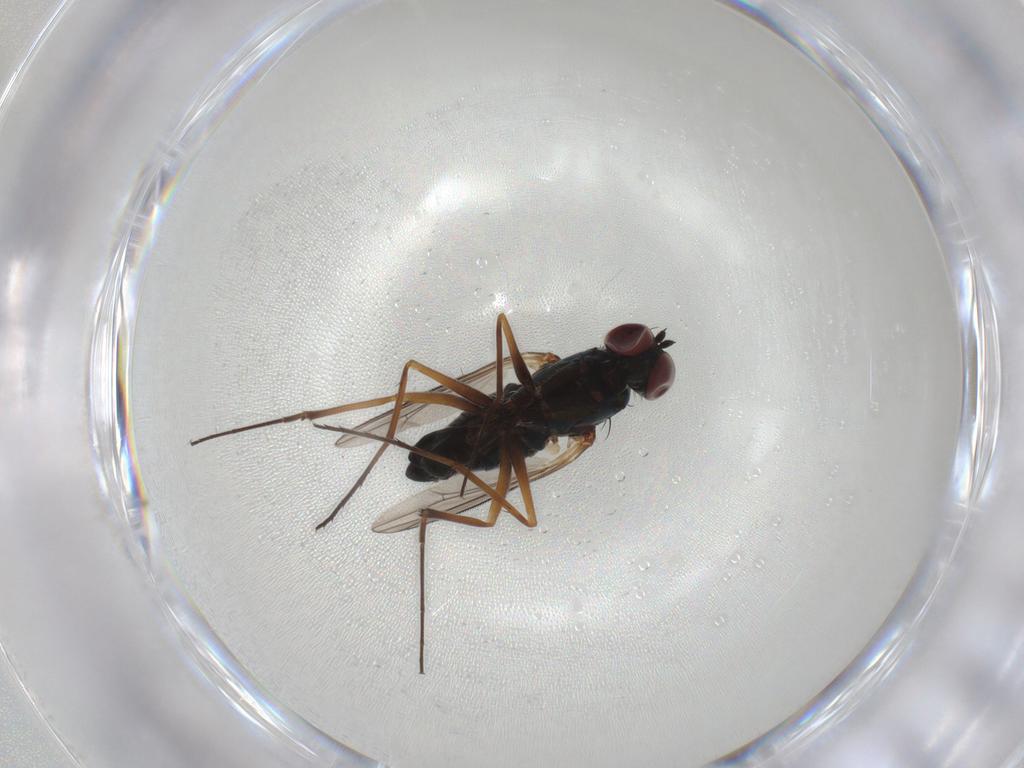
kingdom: Animalia
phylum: Arthropoda
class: Insecta
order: Diptera
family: Dolichopodidae
